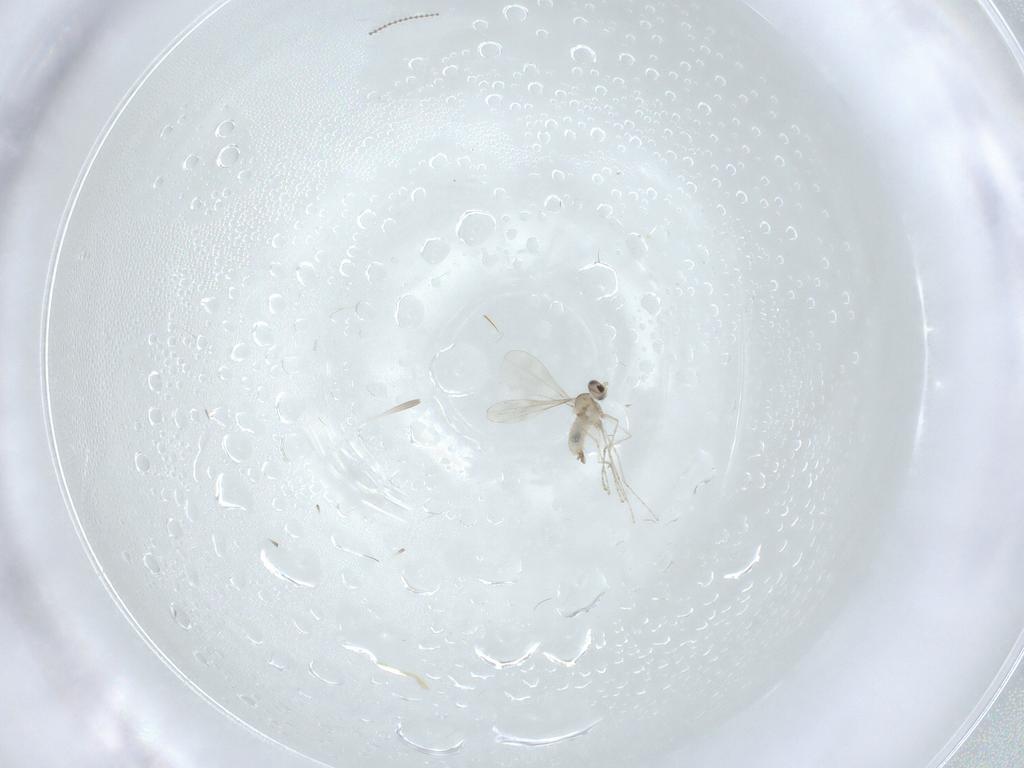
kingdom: Animalia
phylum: Arthropoda
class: Insecta
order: Diptera
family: Cecidomyiidae
